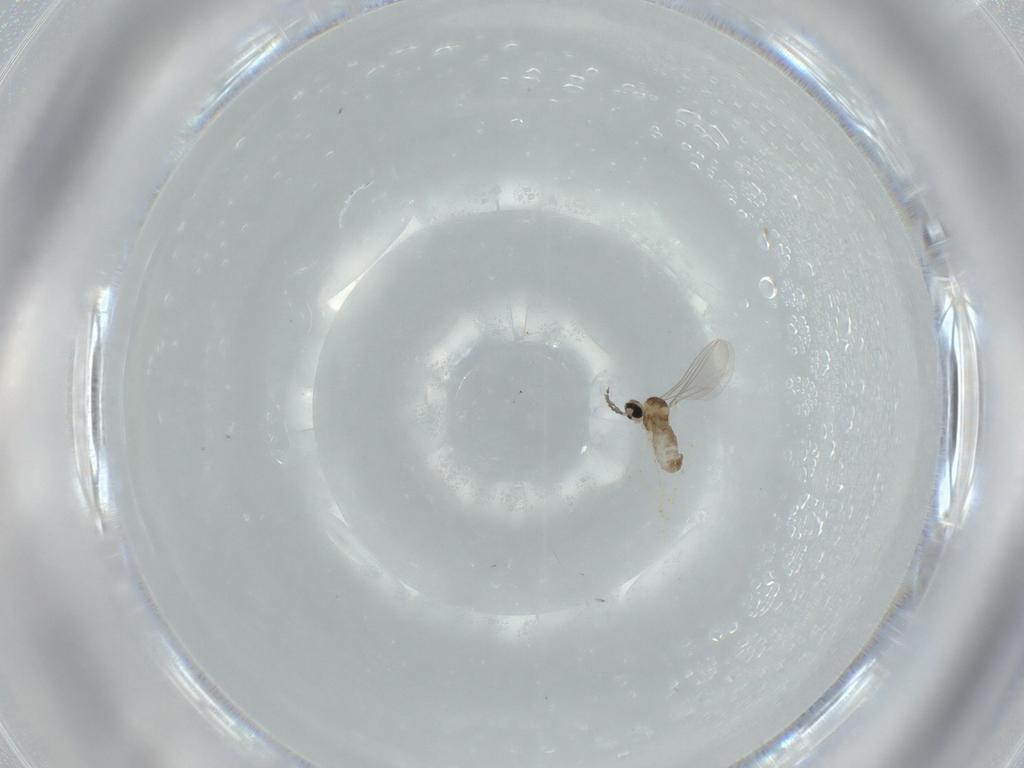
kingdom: Animalia
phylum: Arthropoda
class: Insecta
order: Diptera
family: Cecidomyiidae
